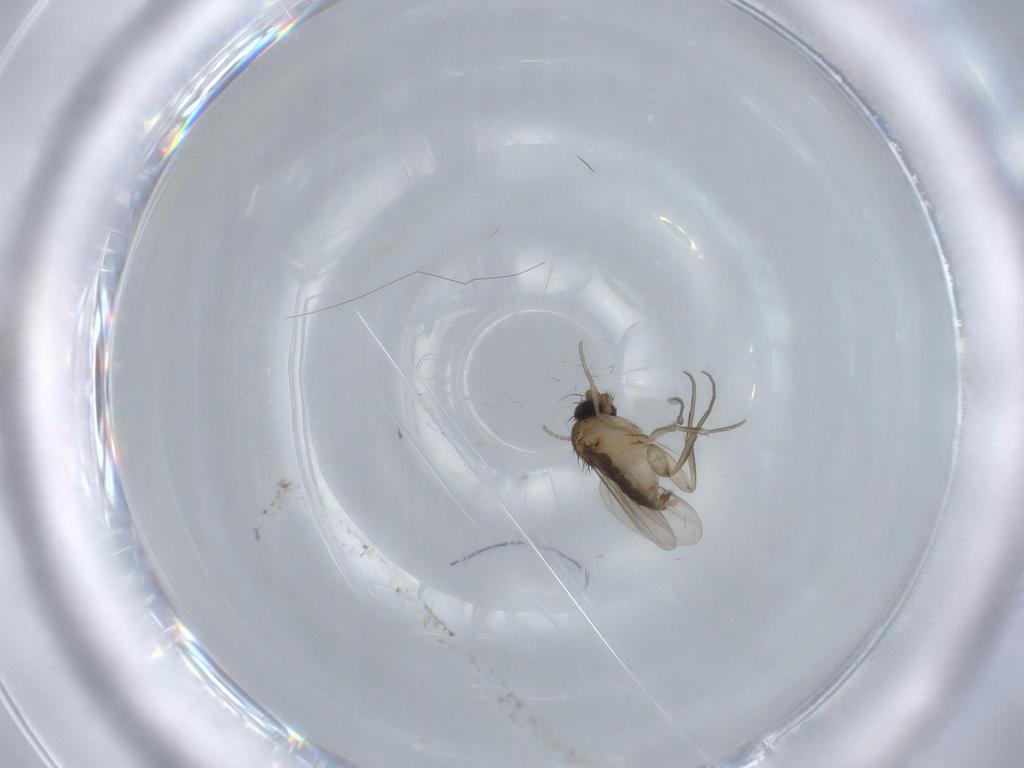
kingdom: Animalia
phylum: Arthropoda
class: Insecta
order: Diptera
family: Phoridae
